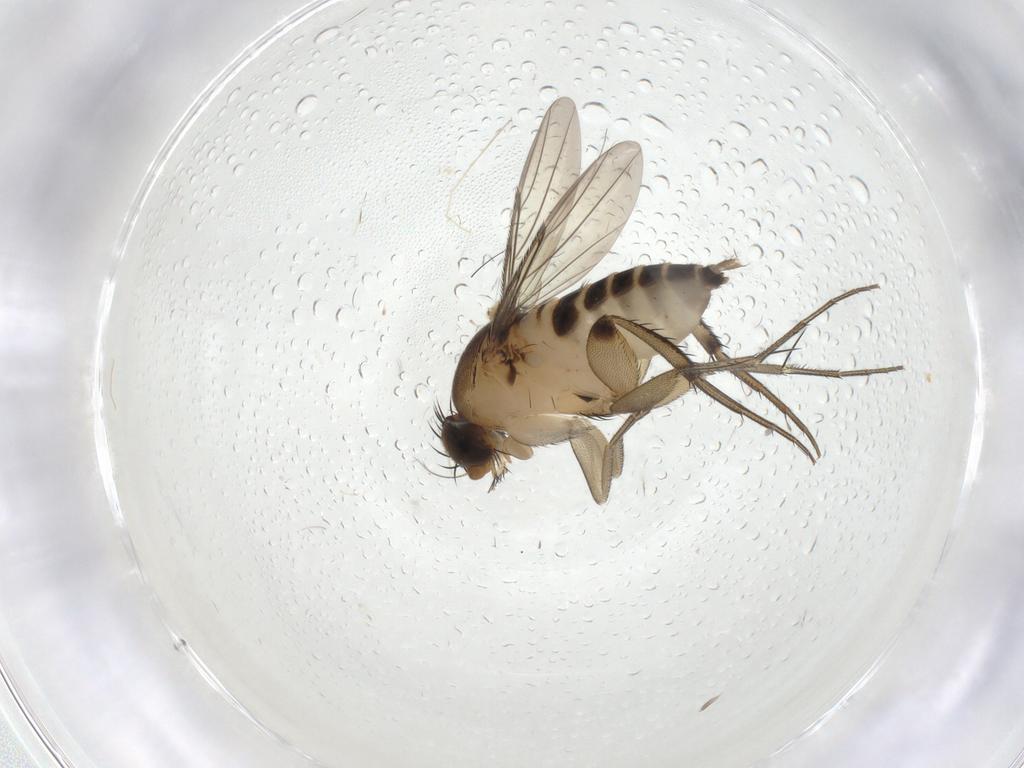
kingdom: Animalia
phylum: Arthropoda
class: Insecta
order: Diptera
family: Phoridae
